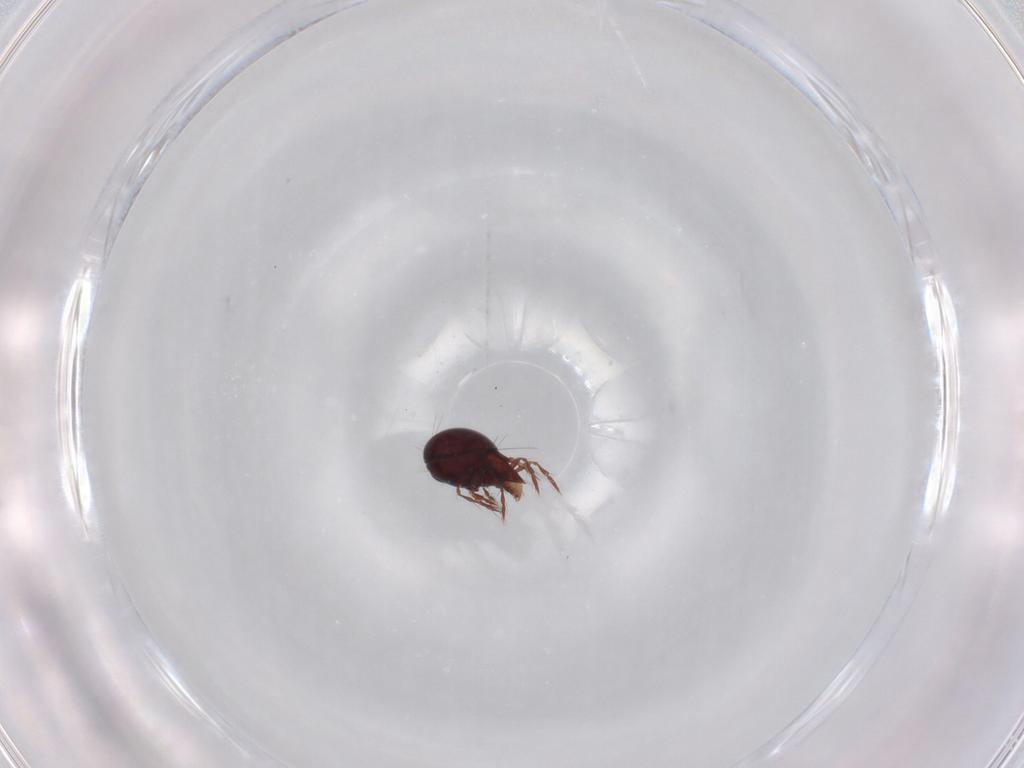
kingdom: Animalia
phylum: Arthropoda
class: Arachnida
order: Sarcoptiformes
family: Ceratoppiidae
